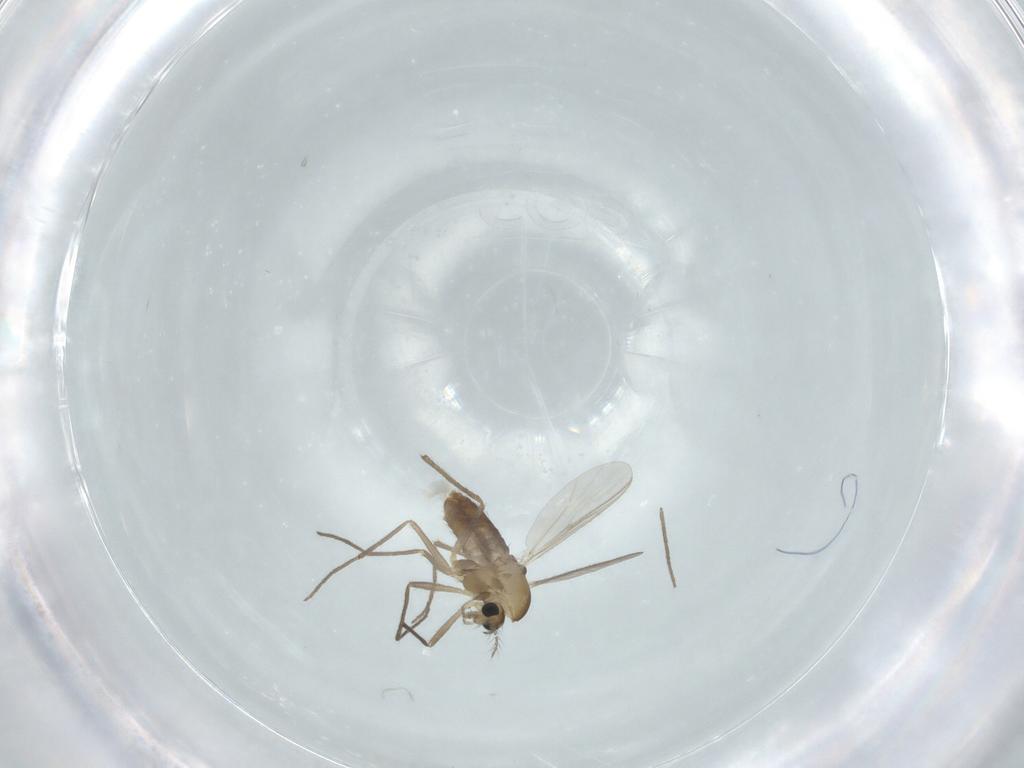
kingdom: Animalia
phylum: Arthropoda
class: Insecta
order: Diptera
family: Chironomidae
